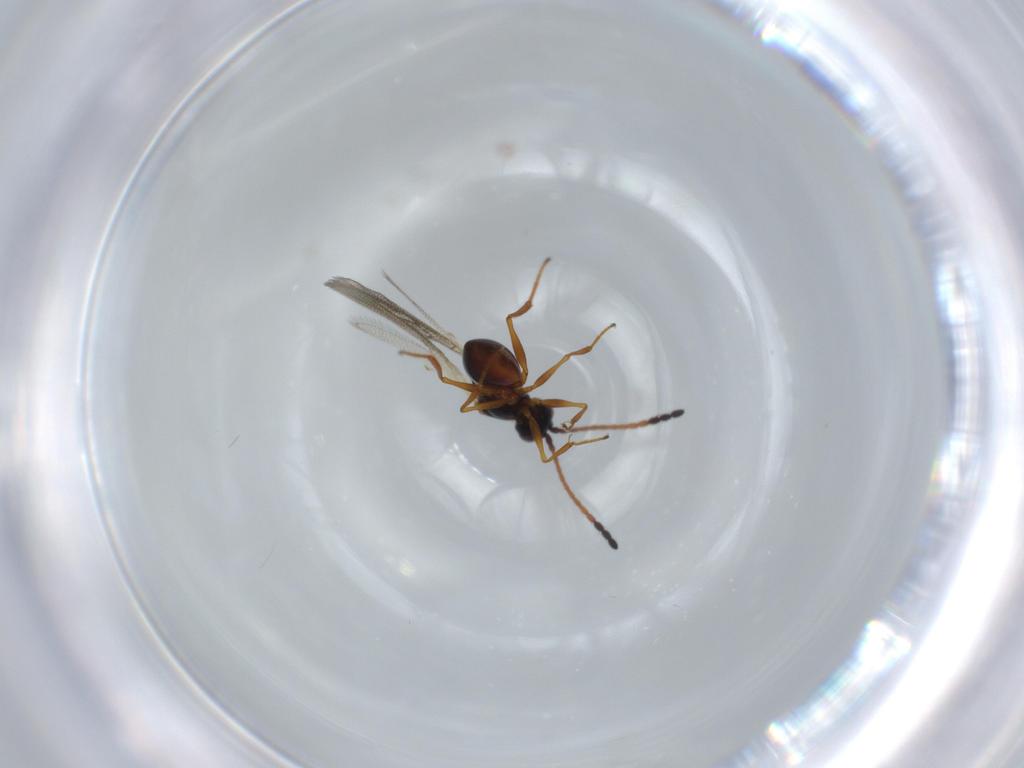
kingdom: Animalia
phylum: Arthropoda
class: Insecta
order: Hymenoptera
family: Figitidae
